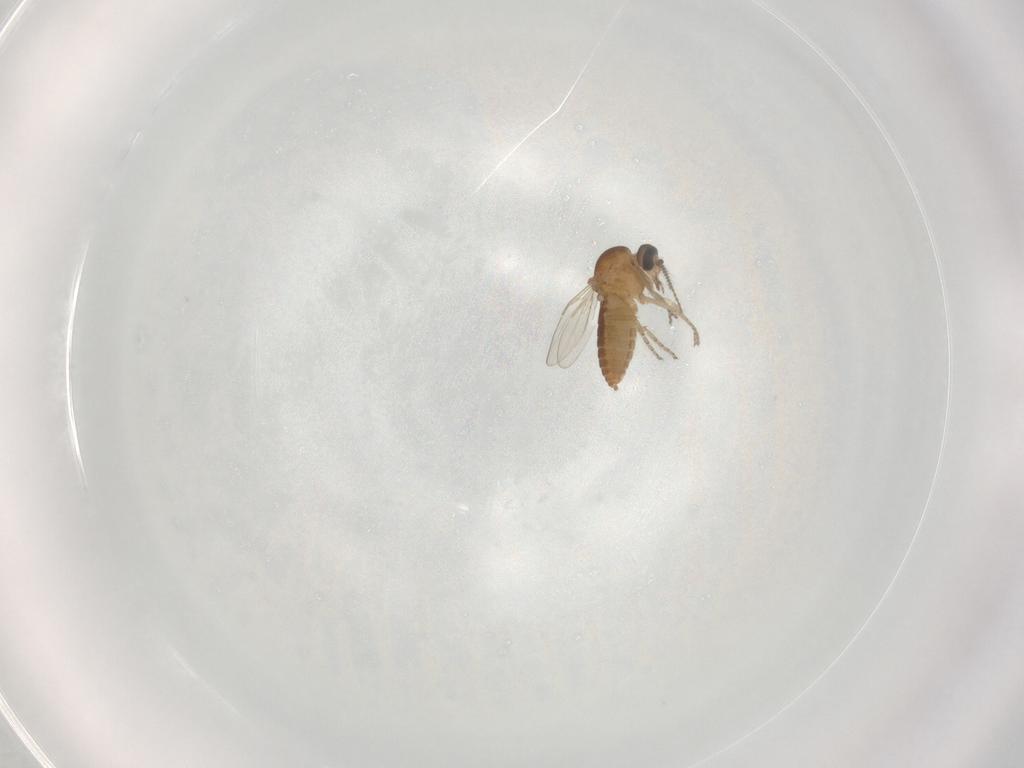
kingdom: Animalia
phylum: Arthropoda
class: Insecta
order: Diptera
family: Ceratopogonidae
